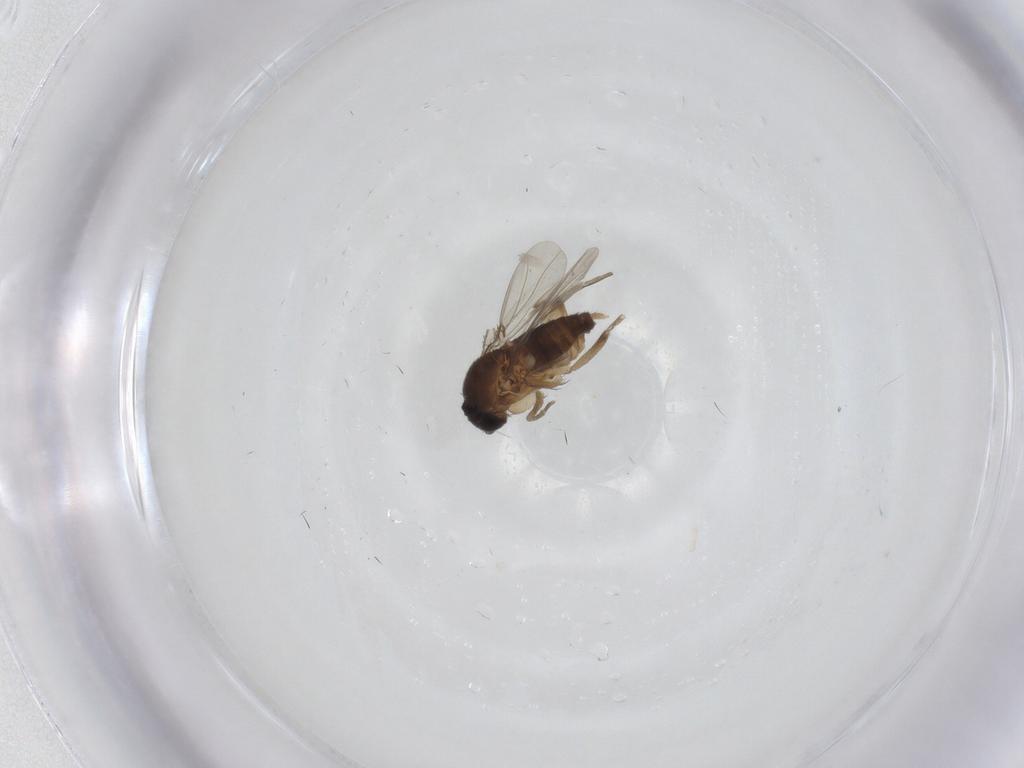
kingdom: Animalia
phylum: Arthropoda
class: Insecta
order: Diptera
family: Phoridae
